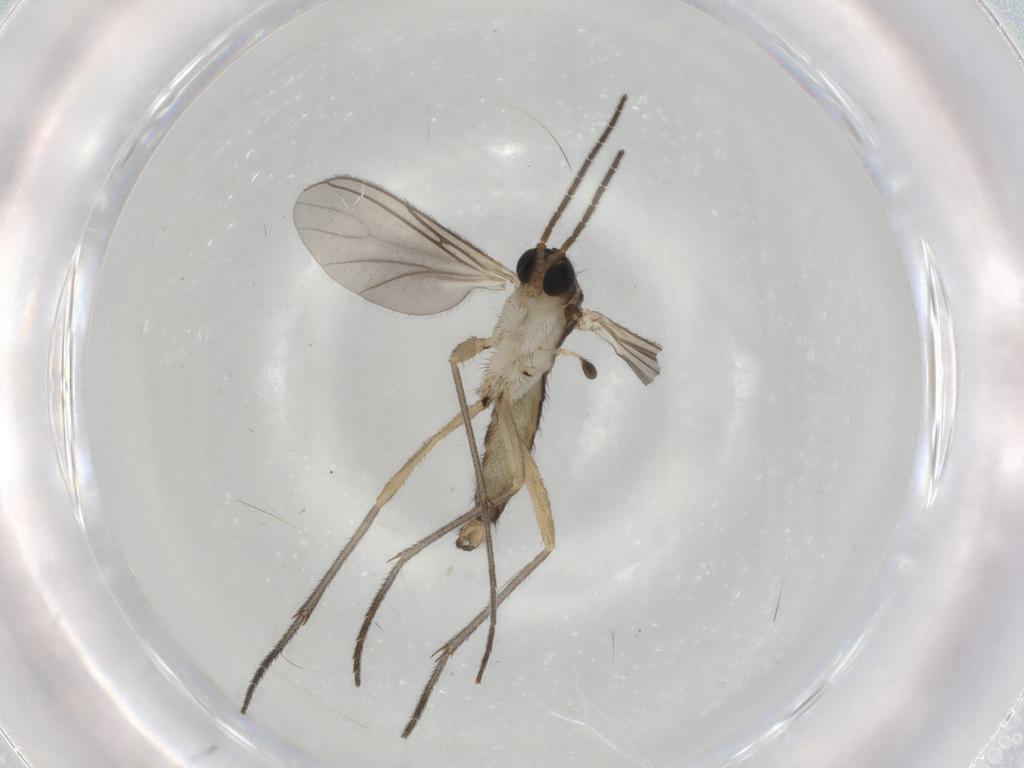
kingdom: Animalia
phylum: Arthropoda
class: Insecta
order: Diptera
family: Sciaridae
